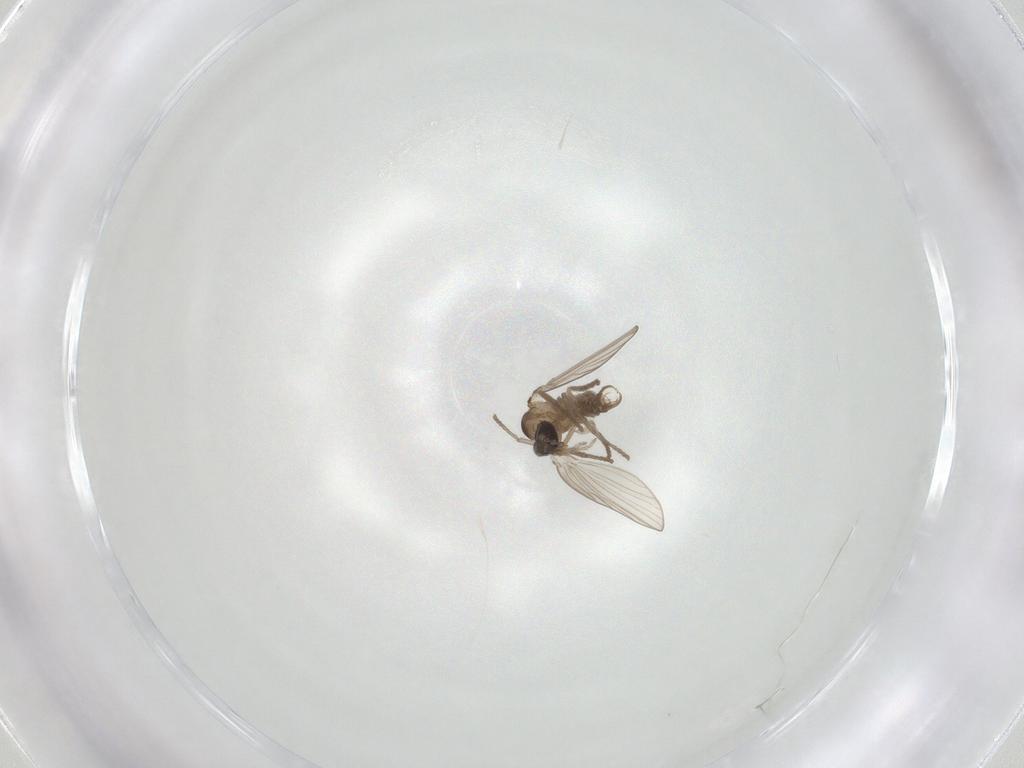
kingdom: Animalia
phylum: Arthropoda
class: Insecta
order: Diptera
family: Psychodidae
